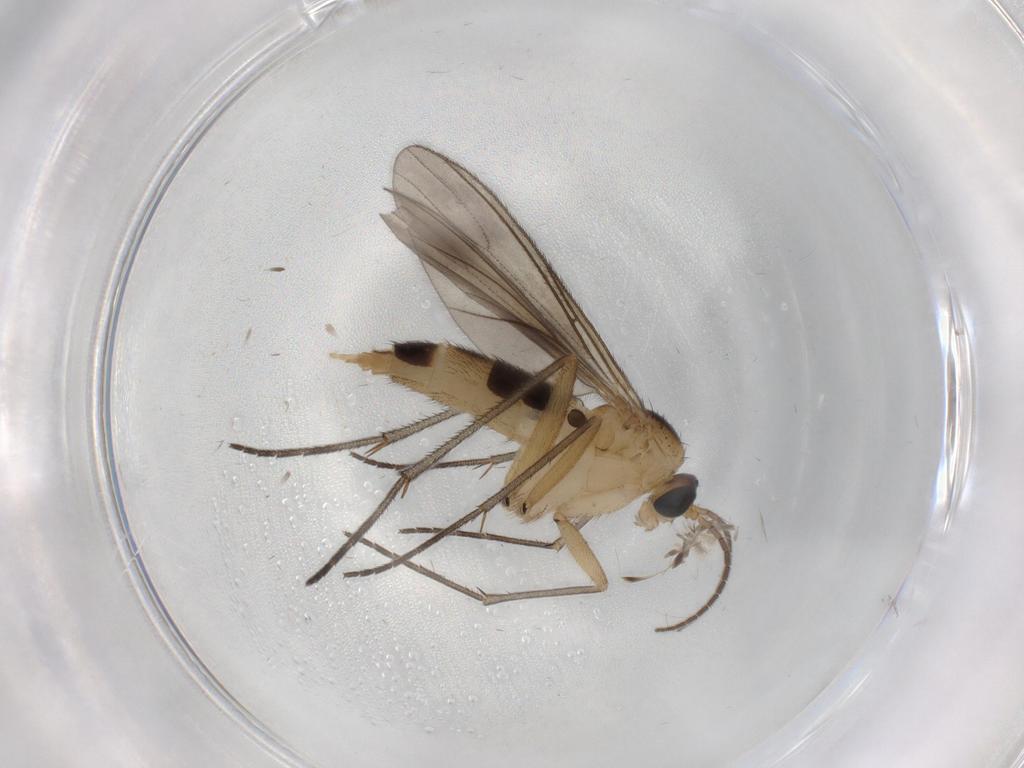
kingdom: Animalia
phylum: Arthropoda
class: Insecta
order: Diptera
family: Sciaridae
